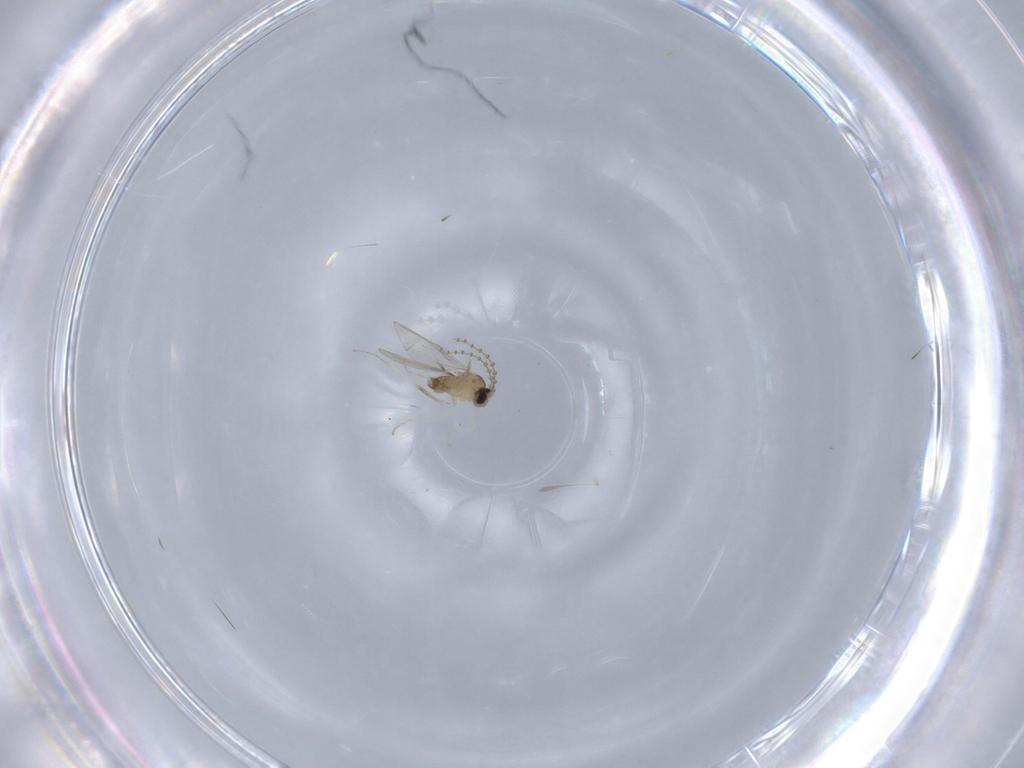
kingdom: Animalia
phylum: Arthropoda
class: Insecta
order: Diptera
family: Cecidomyiidae
